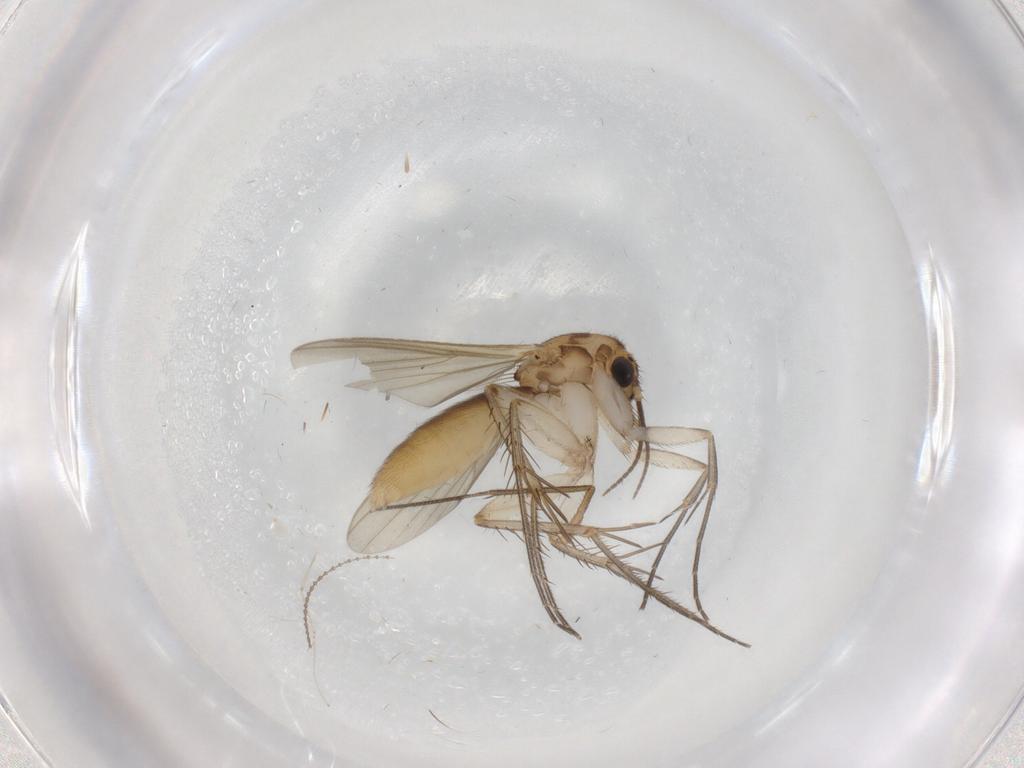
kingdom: Animalia
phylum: Arthropoda
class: Insecta
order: Diptera
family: Mycetophilidae
